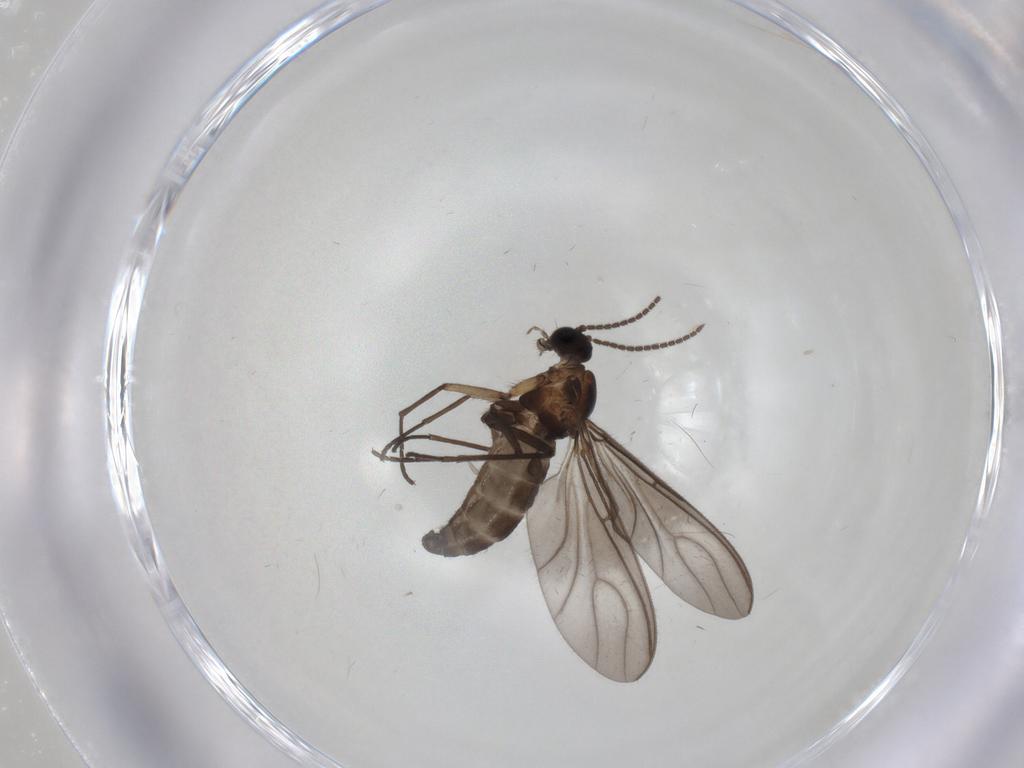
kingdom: Animalia
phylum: Arthropoda
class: Insecta
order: Diptera
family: Sciaridae
